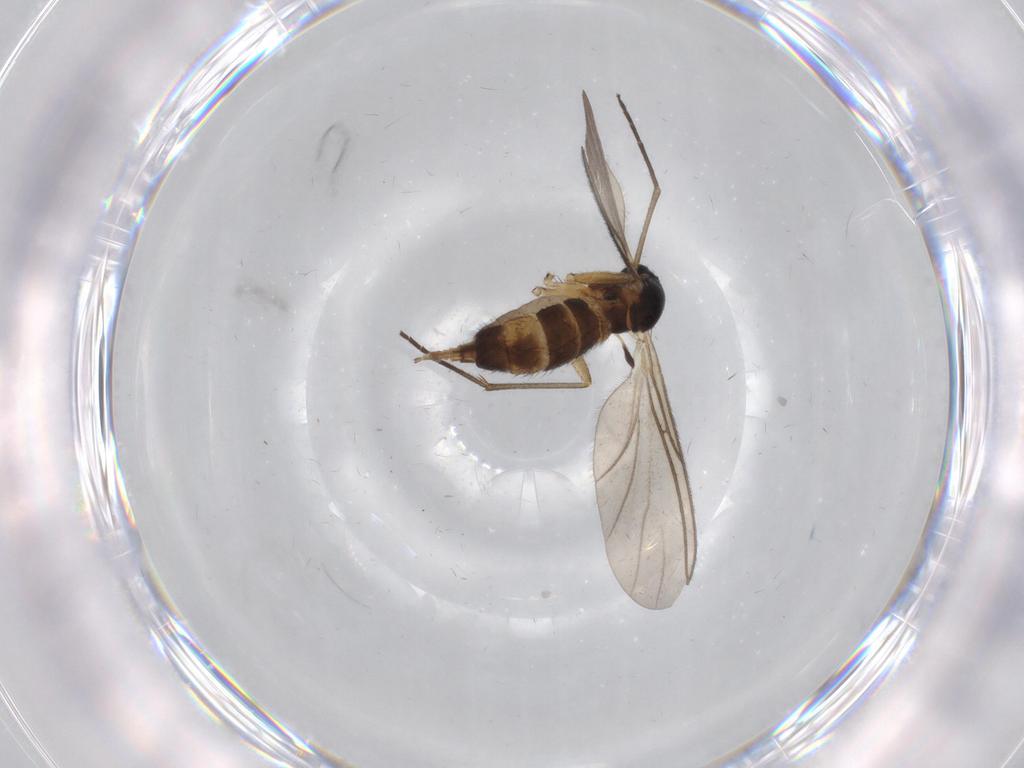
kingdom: Animalia
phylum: Arthropoda
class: Insecta
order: Diptera
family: Sciaridae
